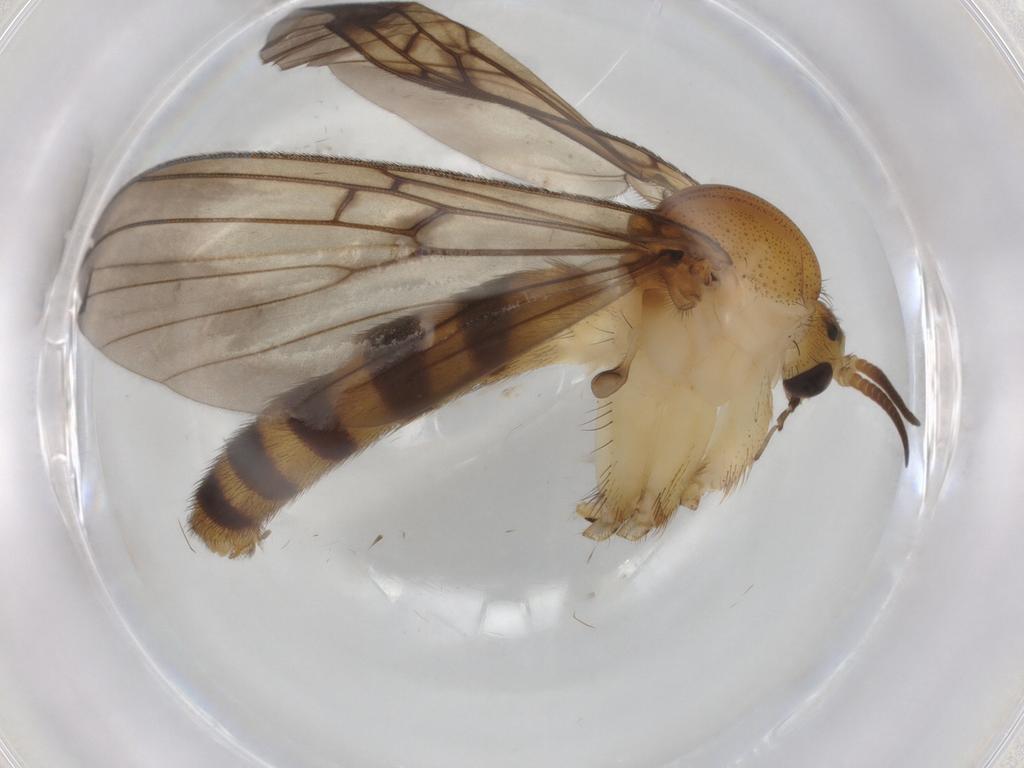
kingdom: Animalia
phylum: Arthropoda
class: Insecta
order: Diptera
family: Mycetophilidae
